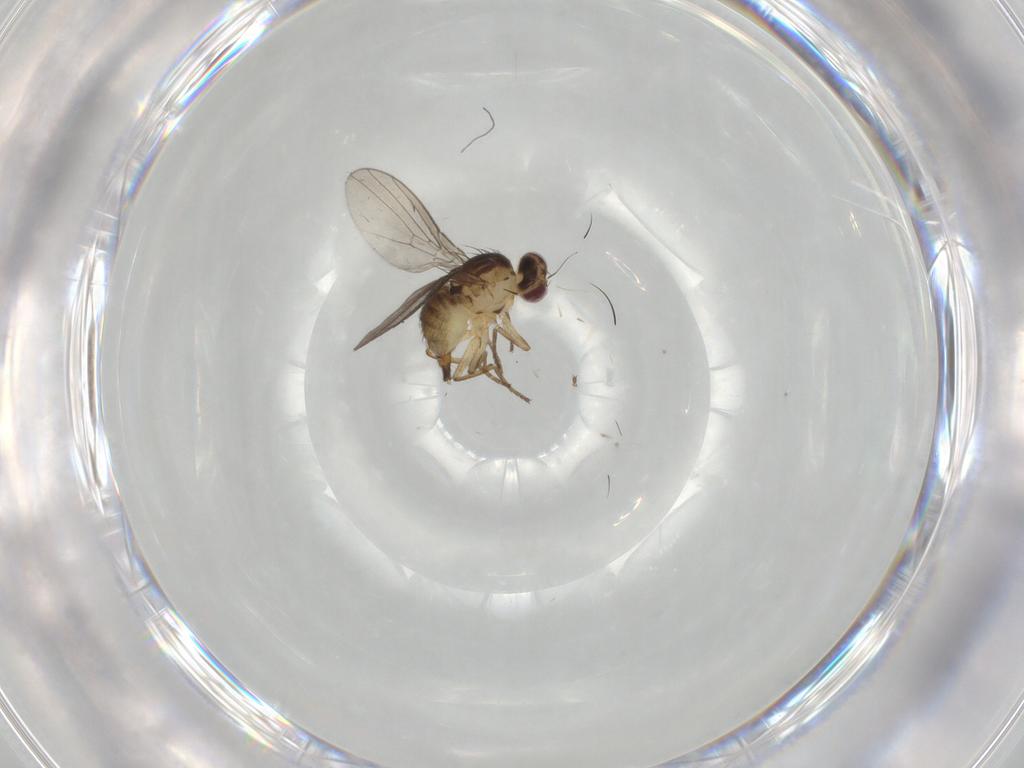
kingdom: Animalia
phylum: Arthropoda
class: Insecta
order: Diptera
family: Agromyzidae
